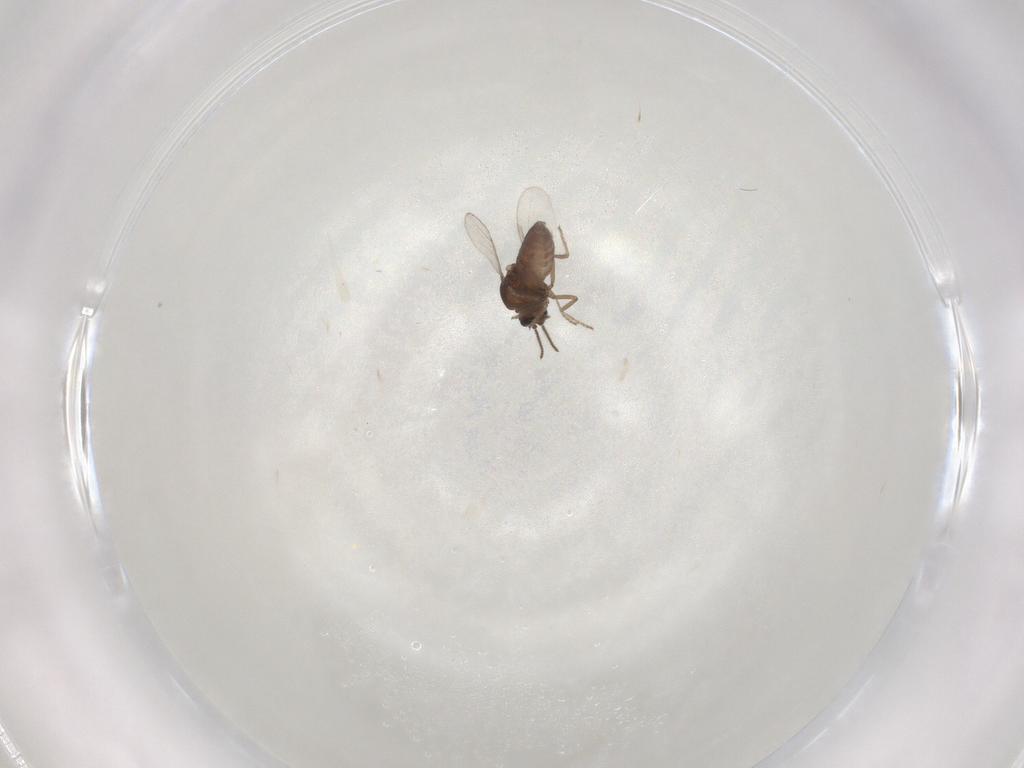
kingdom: Animalia
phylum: Arthropoda
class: Insecta
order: Diptera
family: Ceratopogonidae
